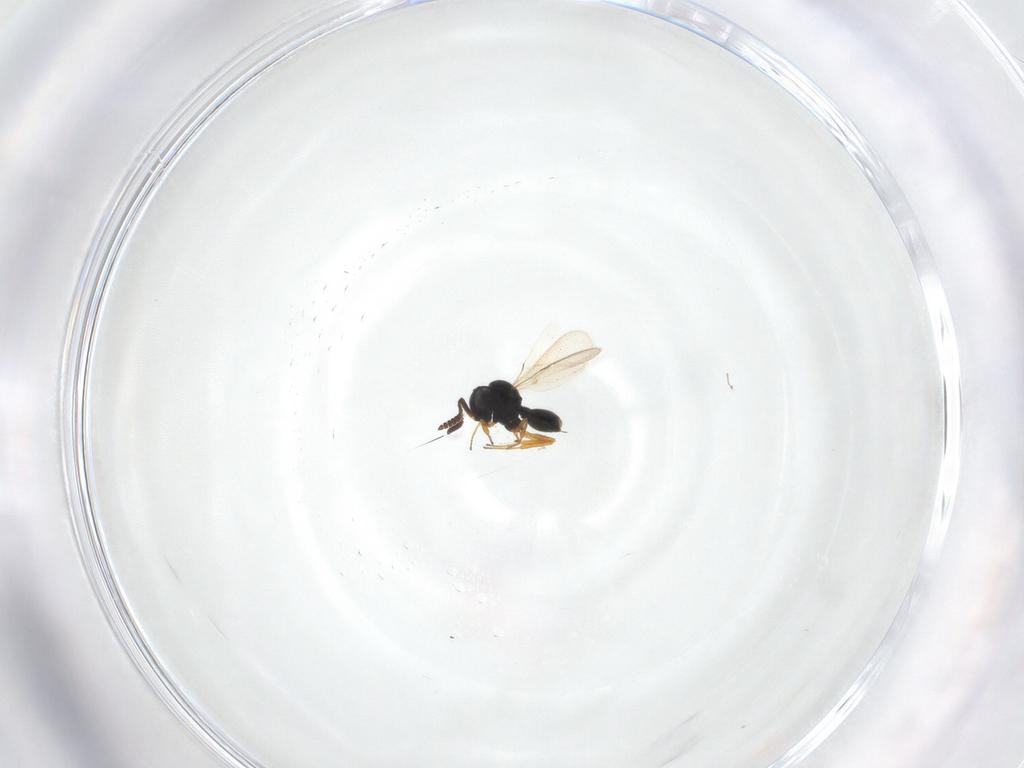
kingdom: Animalia
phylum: Arthropoda
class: Insecta
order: Hymenoptera
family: Scelionidae
